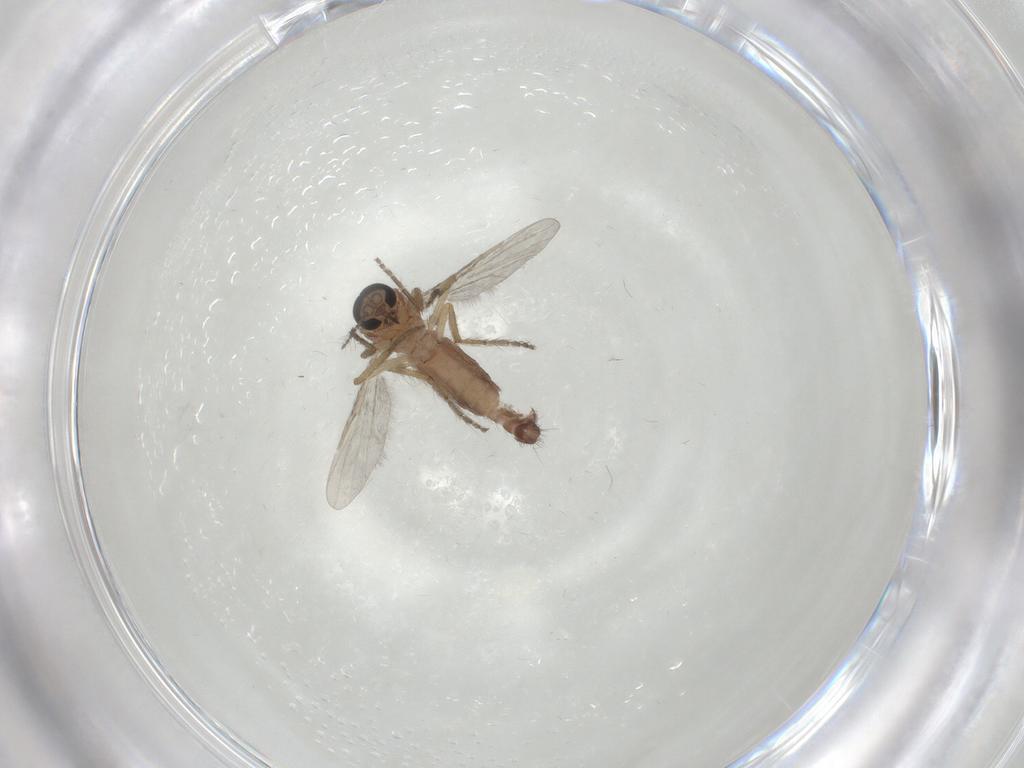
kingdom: Animalia
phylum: Arthropoda
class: Insecta
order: Diptera
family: Ceratopogonidae
